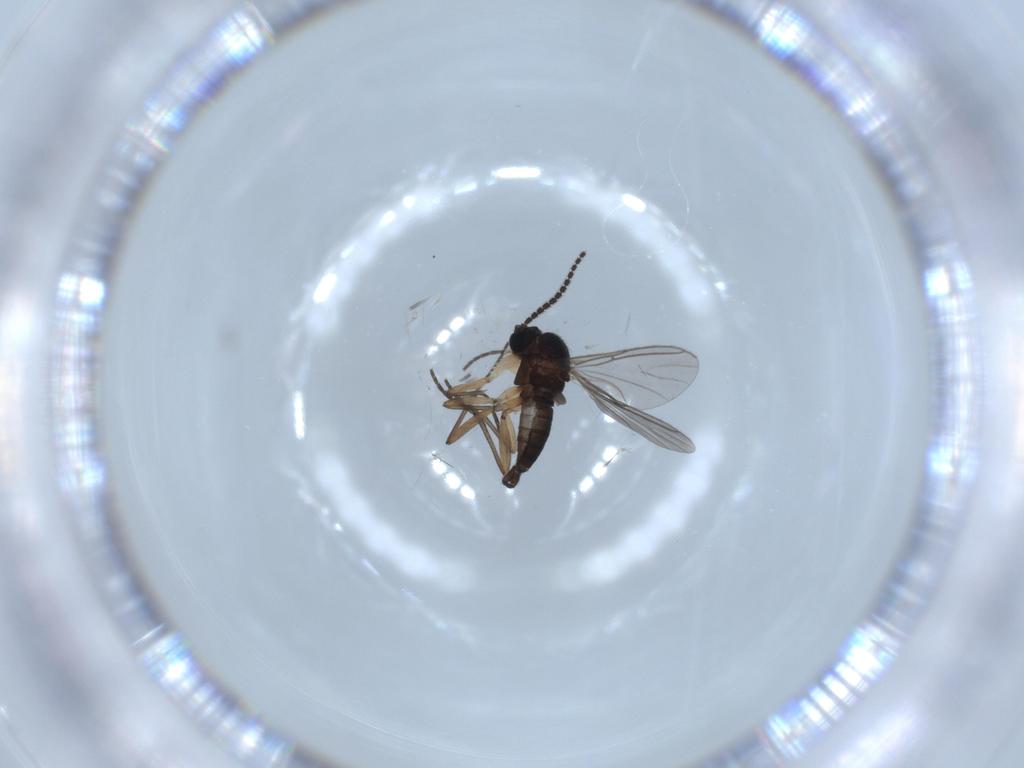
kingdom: Animalia
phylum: Arthropoda
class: Insecta
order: Diptera
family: Sciaridae
